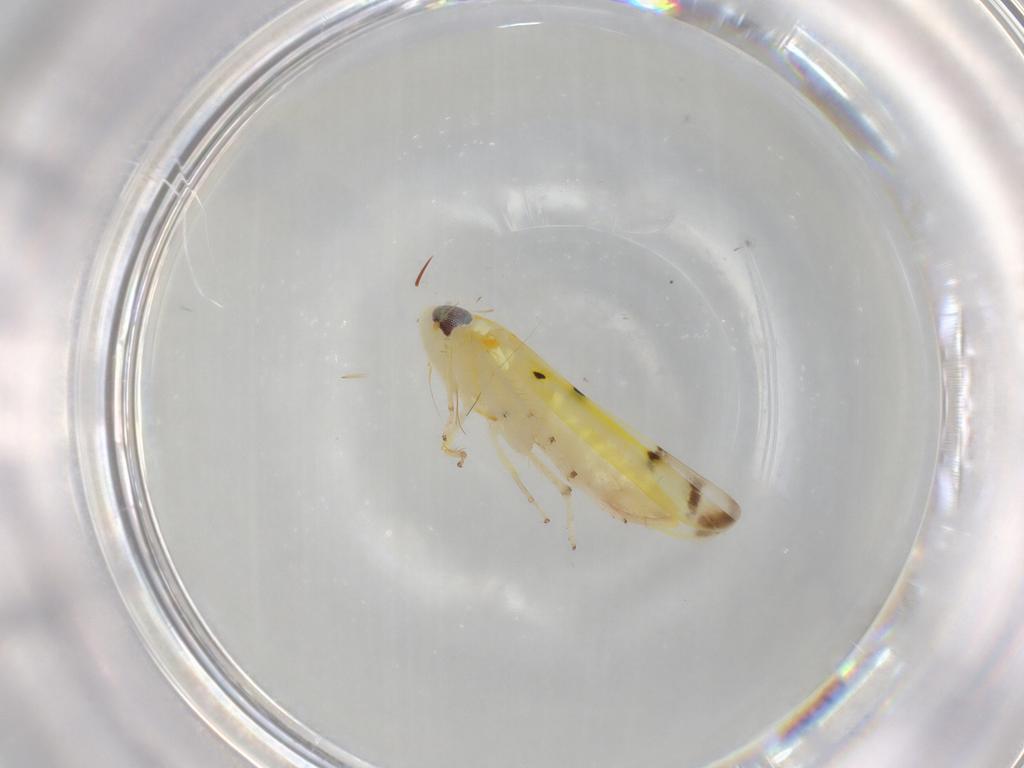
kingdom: Animalia
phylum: Arthropoda
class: Insecta
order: Hemiptera
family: Cicadellidae
